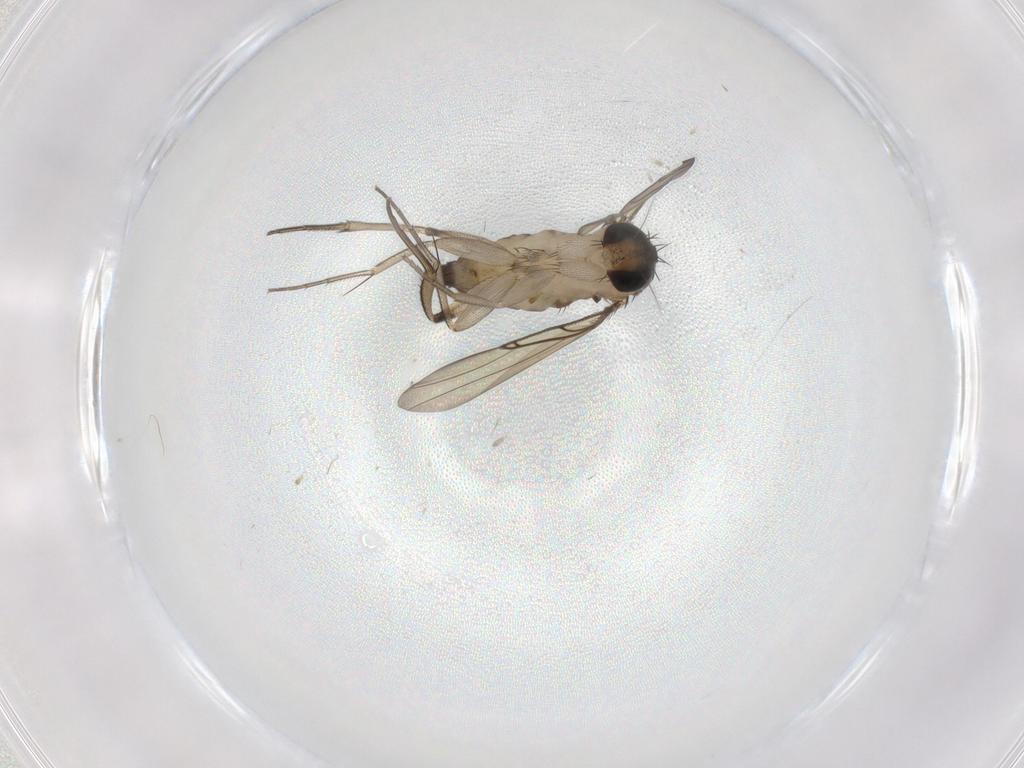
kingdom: Animalia
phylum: Arthropoda
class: Insecta
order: Diptera
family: Phoridae
